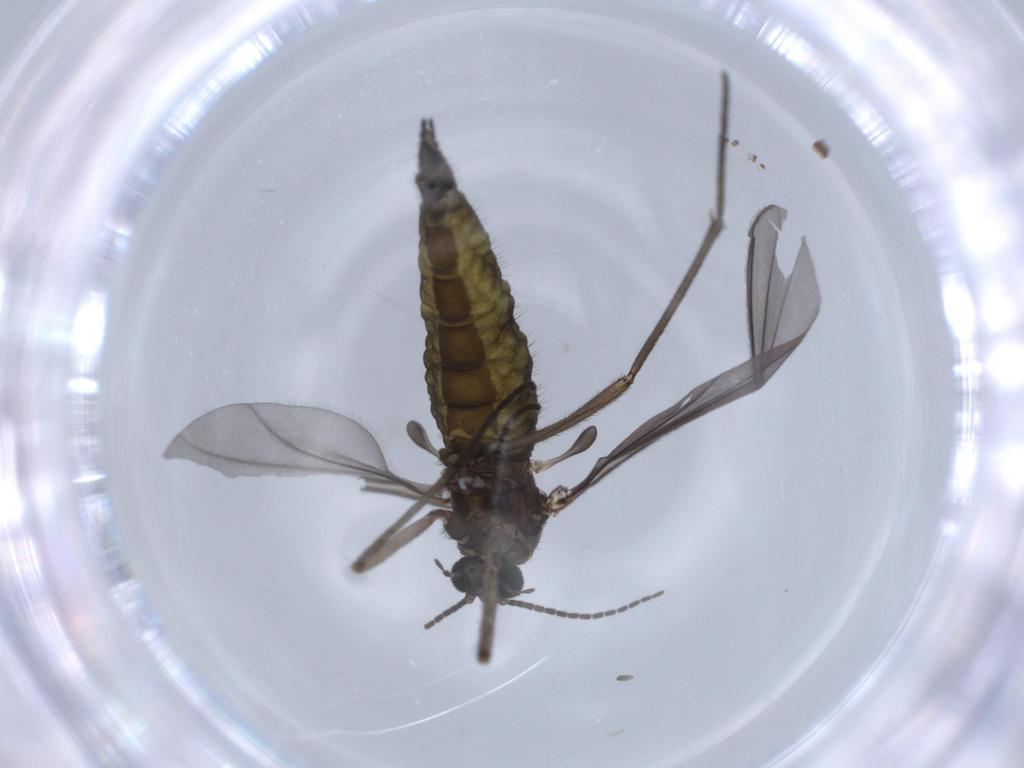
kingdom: Animalia
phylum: Arthropoda
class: Insecta
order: Diptera
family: Sciaridae
